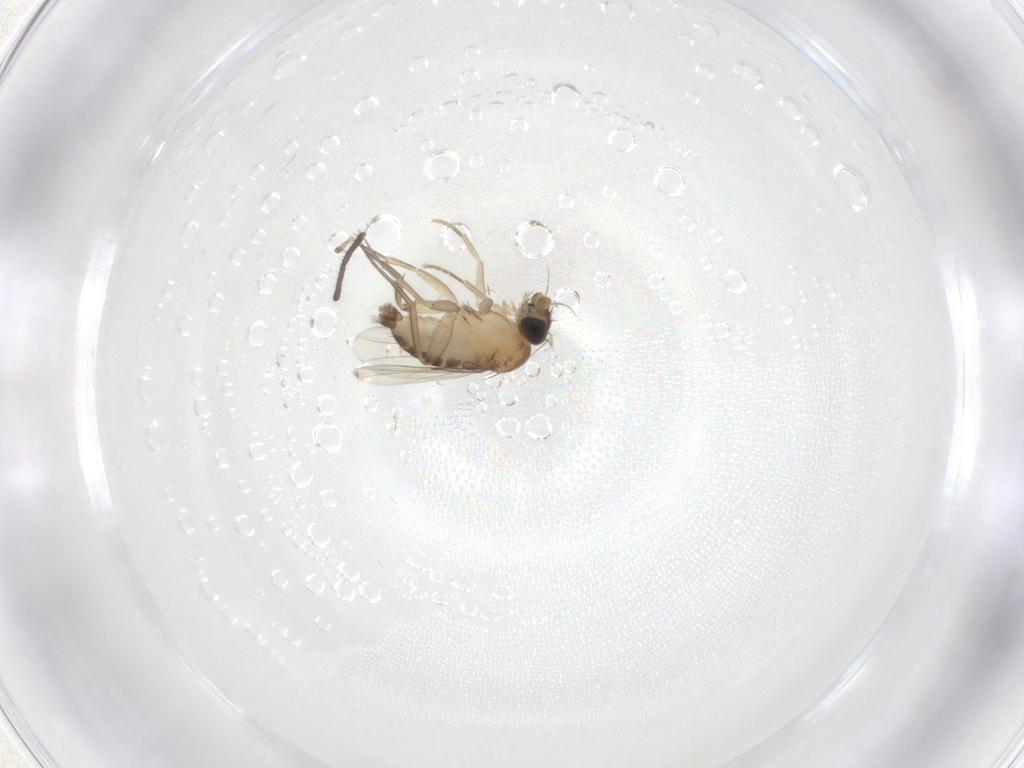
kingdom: Animalia
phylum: Arthropoda
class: Insecta
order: Diptera
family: Phoridae
